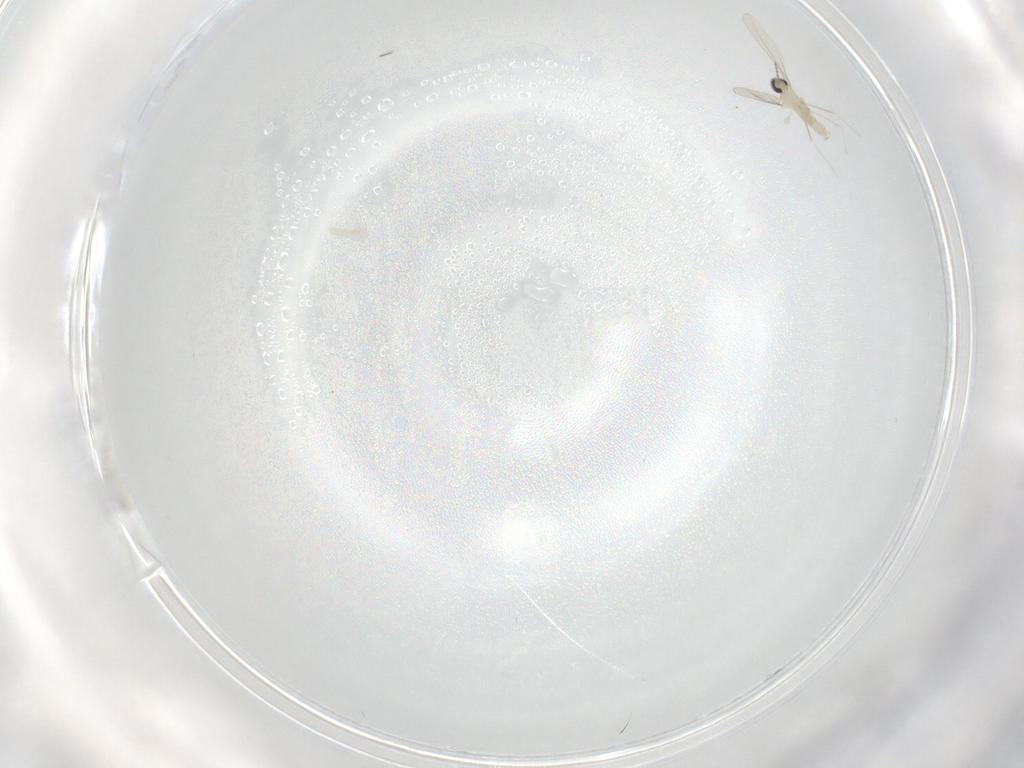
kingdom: Animalia
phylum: Arthropoda
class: Insecta
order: Diptera
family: Cecidomyiidae
